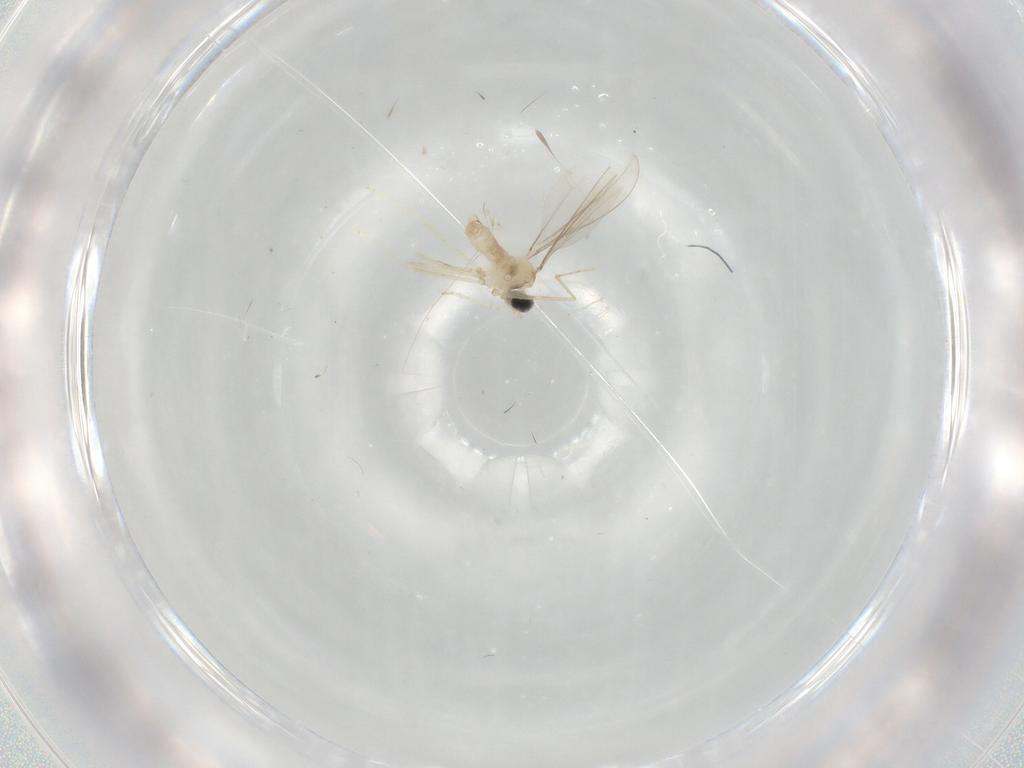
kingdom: Animalia
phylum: Arthropoda
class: Insecta
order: Diptera
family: Cecidomyiidae
